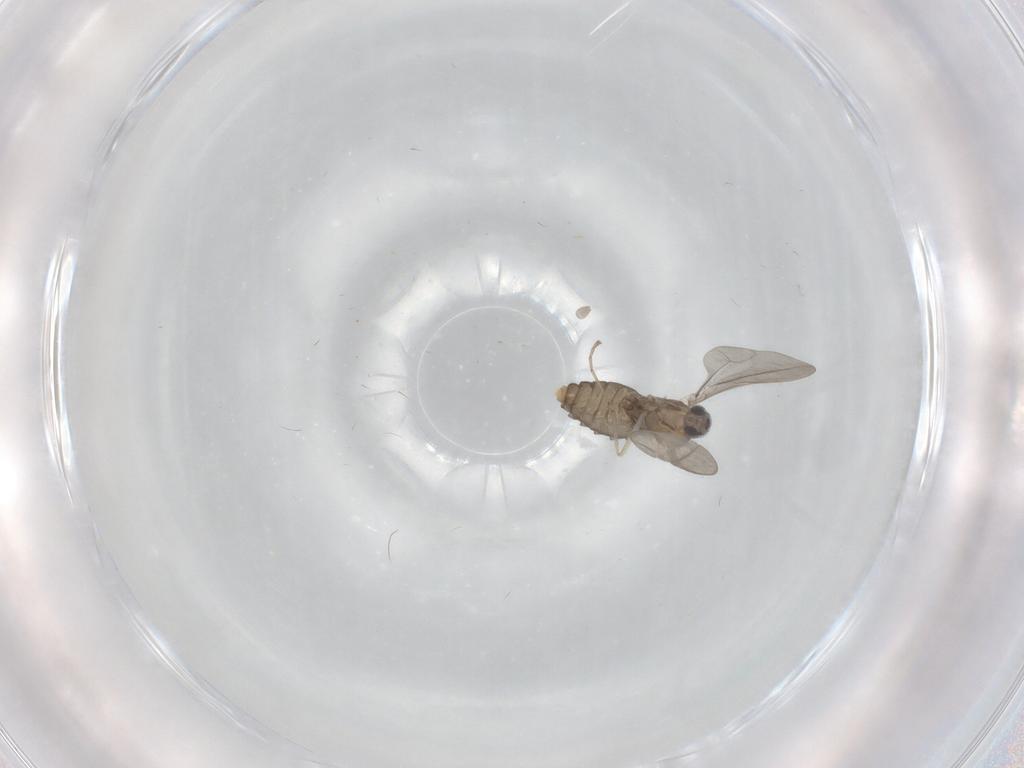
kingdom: Animalia
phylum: Arthropoda
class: Insecta
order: Diptera
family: Cecidomyiidae
